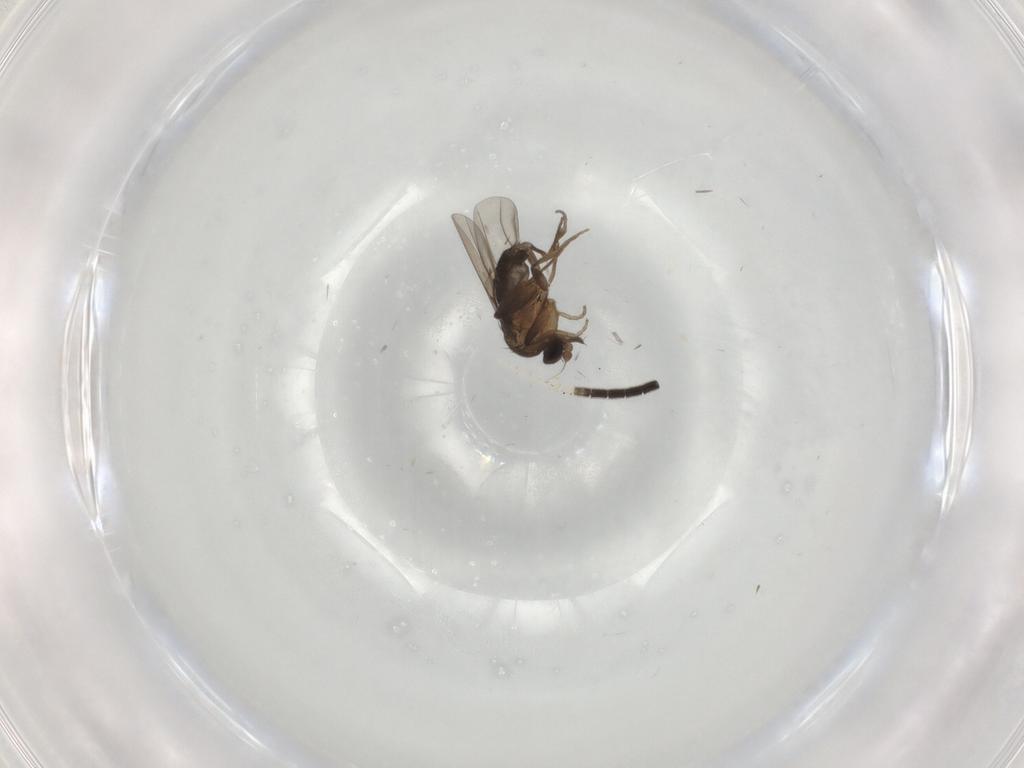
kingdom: Animalia
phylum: Arthropoda
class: Insecta
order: Diptera
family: Mycetophilidae
